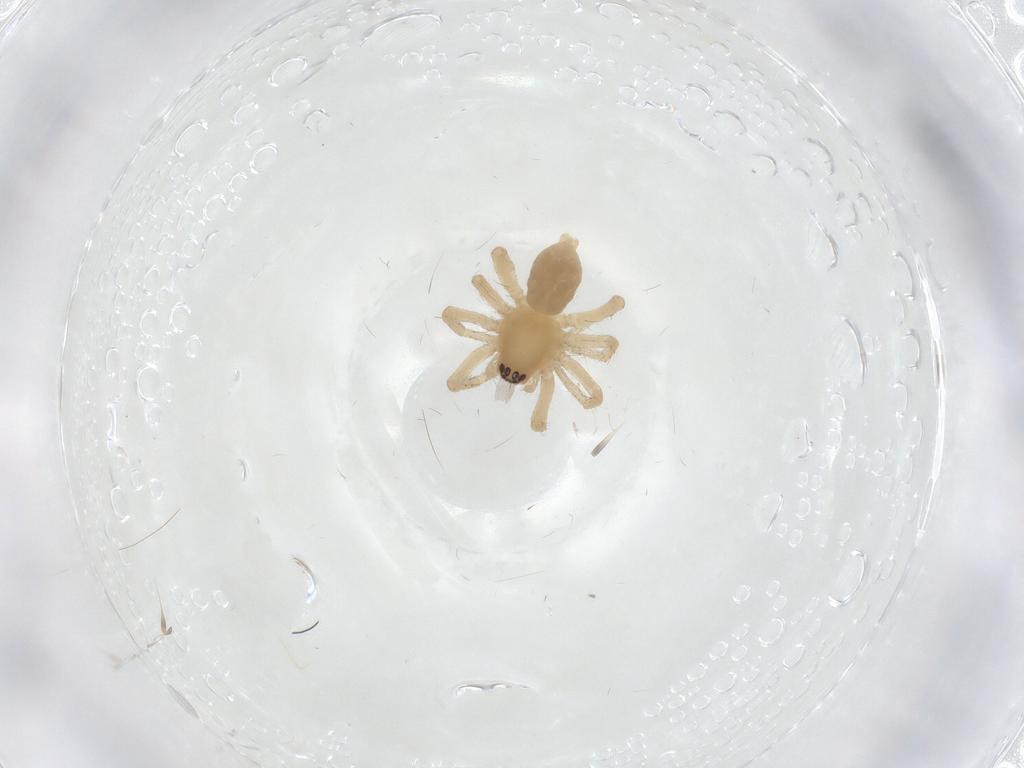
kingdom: Animalia
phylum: Arthropoda
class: Arachnida
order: Araneae
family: Anyphaenidae
